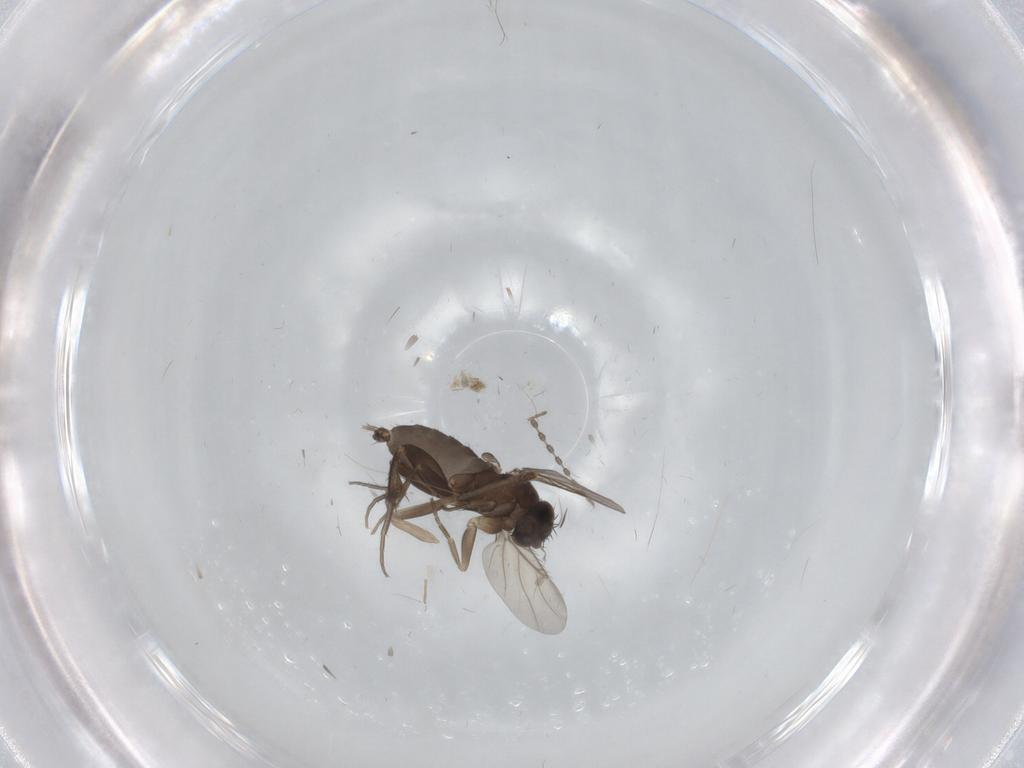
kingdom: Animalia
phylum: Arthropoda
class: Insecta
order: Diptera
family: Phoridae
